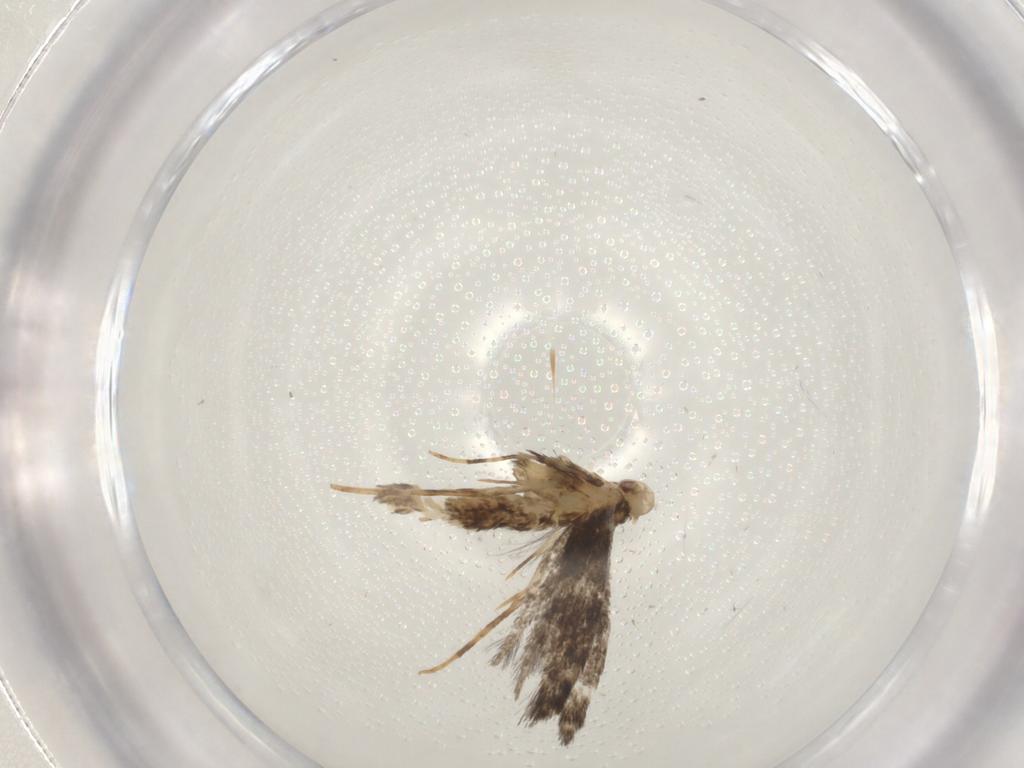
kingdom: Animalia
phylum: Arthropoda
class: Insecta
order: Lepidoptera
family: Gracillariidae
